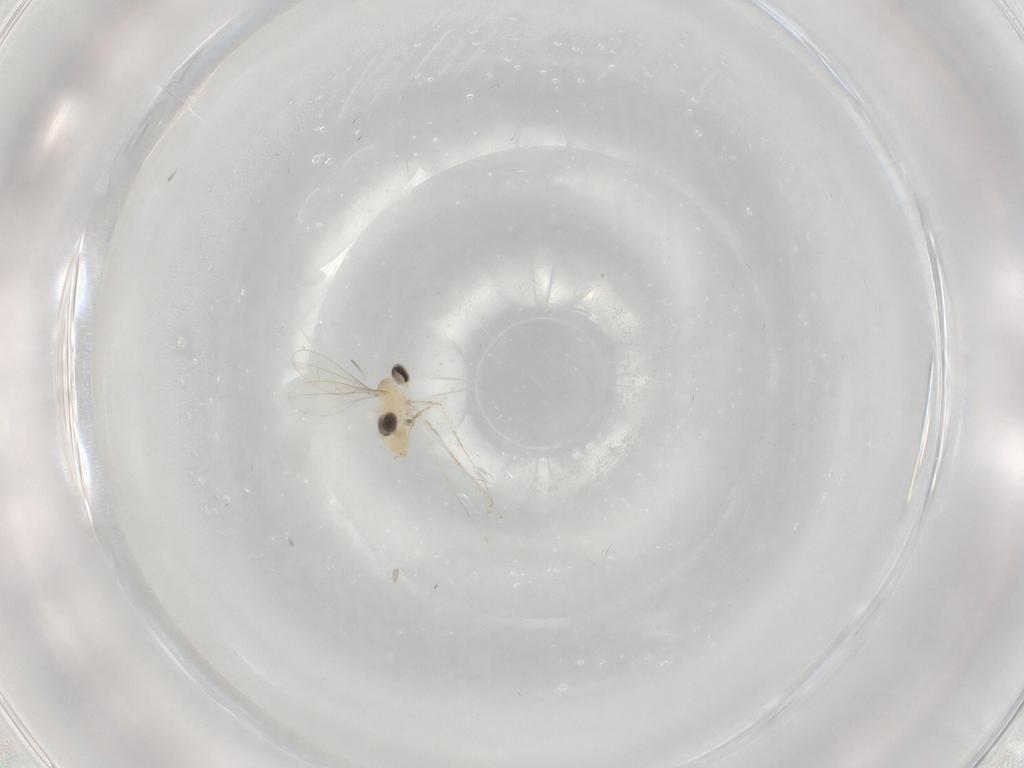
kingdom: Animalia
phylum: Arthropoda
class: Insecta
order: Diptera
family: Cecidomyiidae
